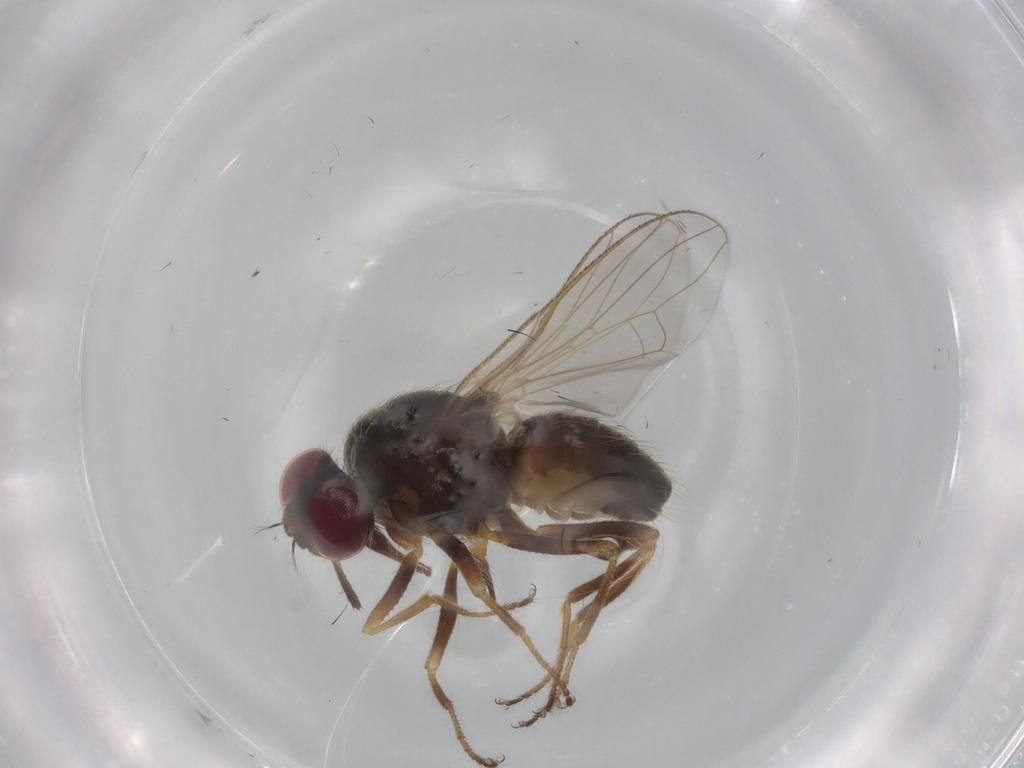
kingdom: Animalia
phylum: Arthropoda
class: Insecta
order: Diptera
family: Muscidae
